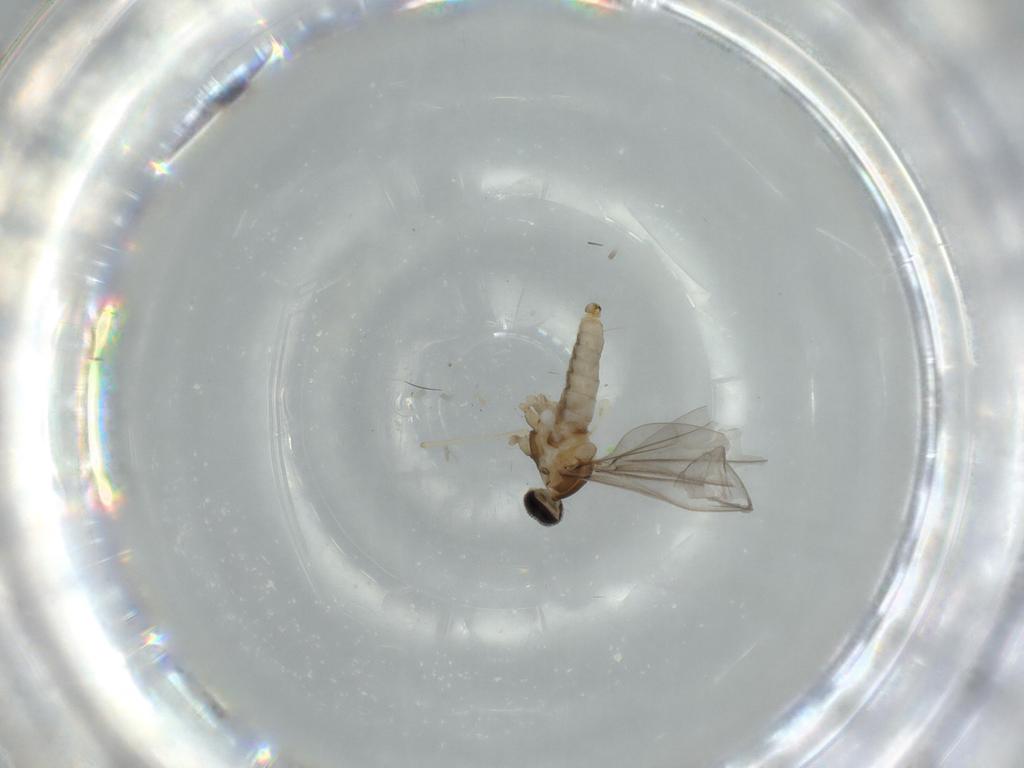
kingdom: Animalia
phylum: Arthropoda
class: Insecta
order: Diptera
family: Cecidomyiidae
